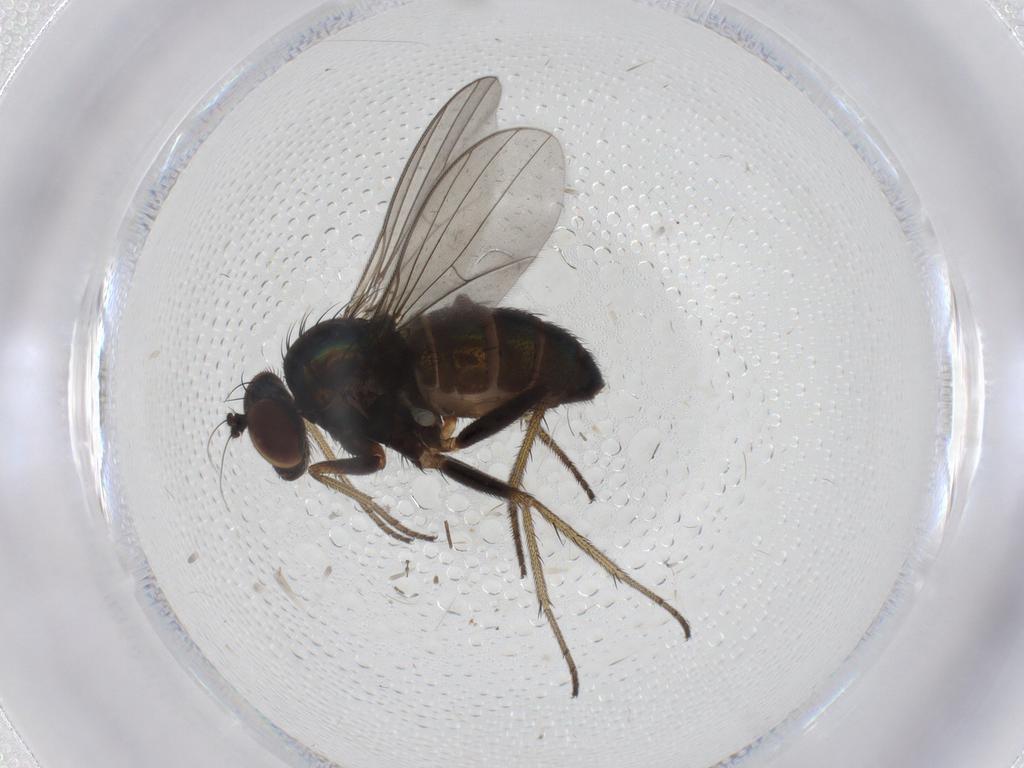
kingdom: Animalia
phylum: Arthropoda
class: Insecta
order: Diptera
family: Dolichopodidae
